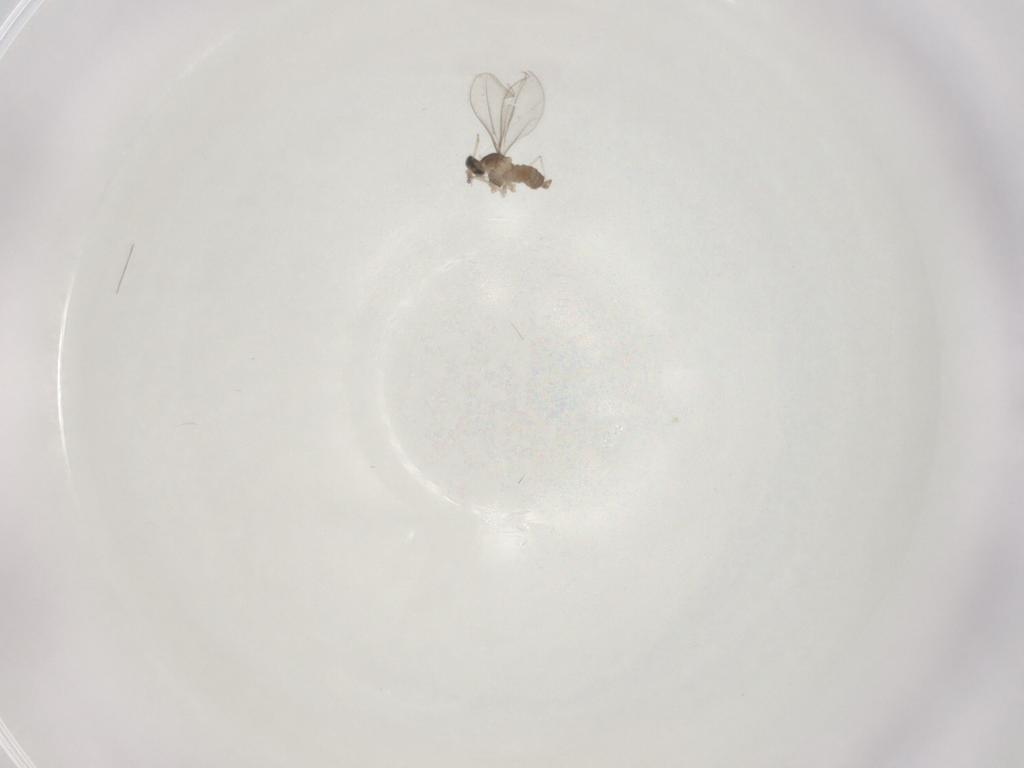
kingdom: Animalia
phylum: Arthropoda
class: Insecta
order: Diptera
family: Cecidomyiidae
